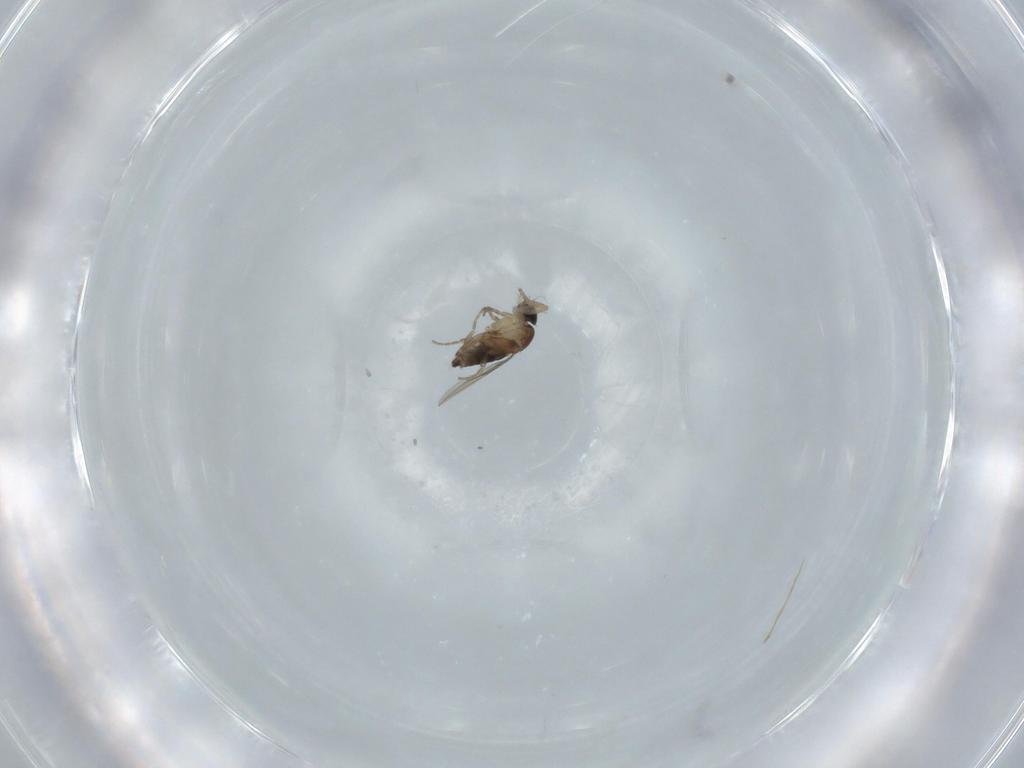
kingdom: Animalia
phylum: Arthropoda
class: Insecta
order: Diptera
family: Phoridae
